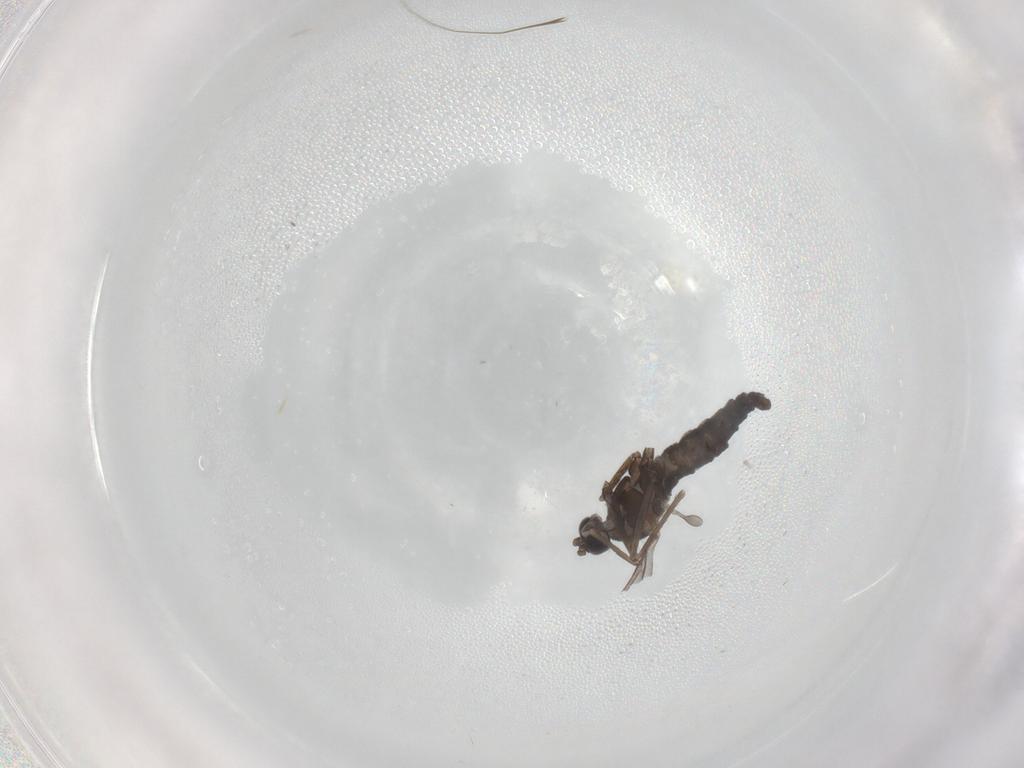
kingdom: Animalia
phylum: Arthropoda
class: Insecta
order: Diptera
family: Cecidomyiidae
